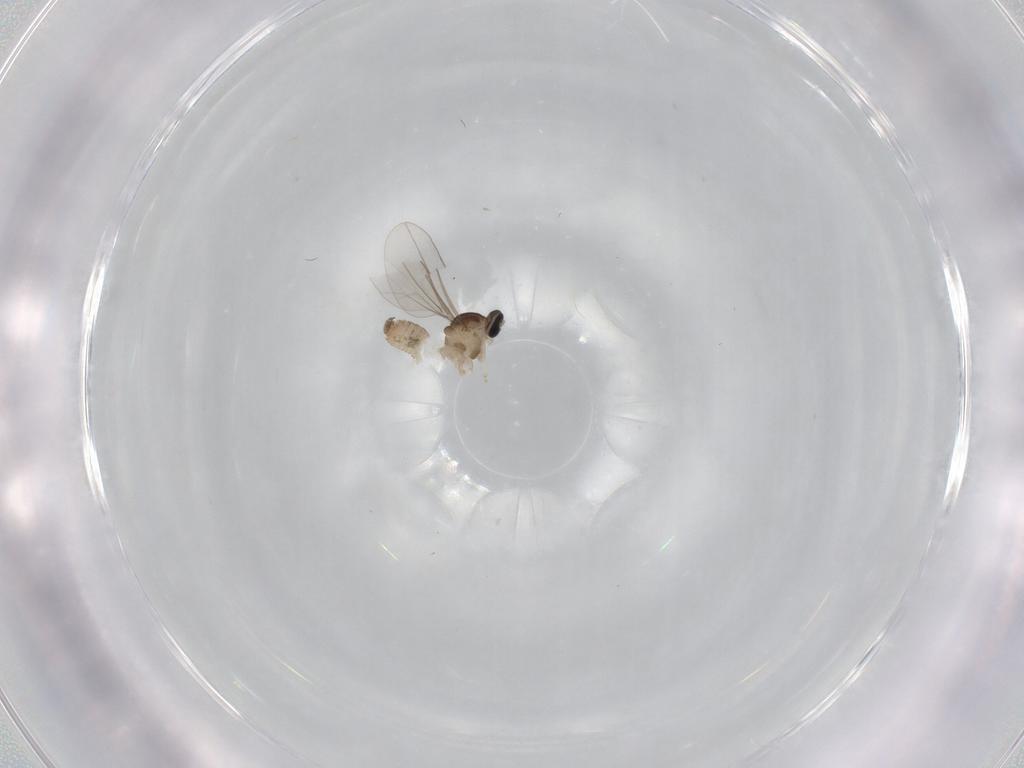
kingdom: Animalia
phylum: Arthropoda
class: Insecta
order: Diptera
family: Cecidomyiidae
